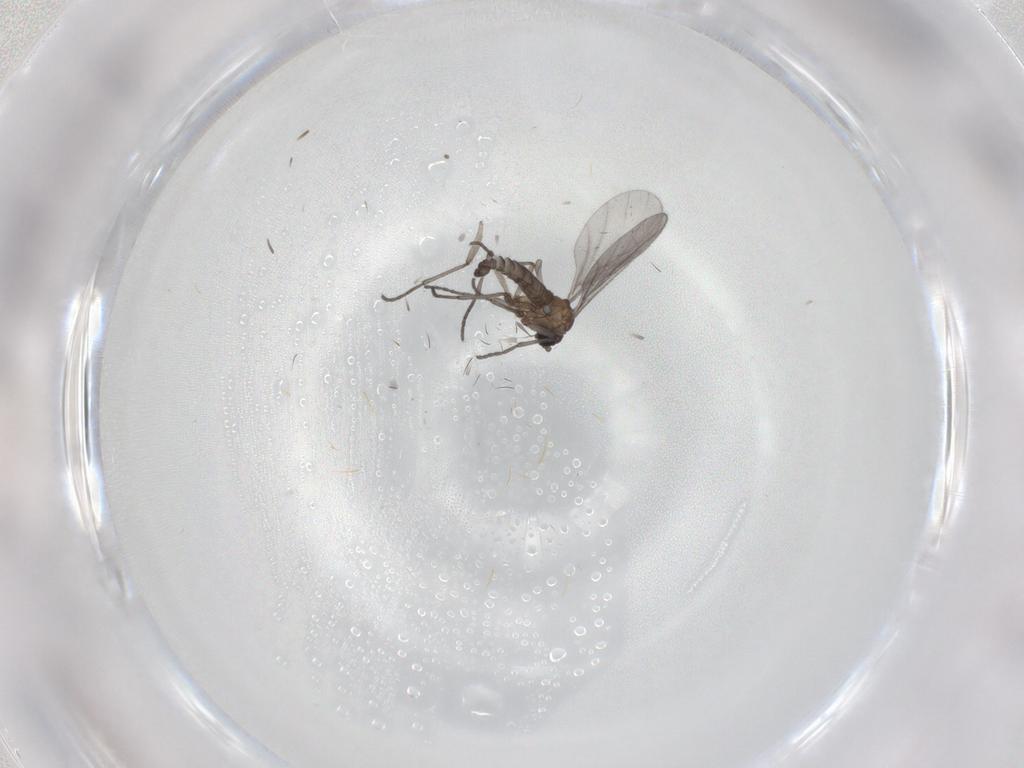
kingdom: Animalia
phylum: Arthropoda
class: Insecta
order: Diptera
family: Sciaridae
